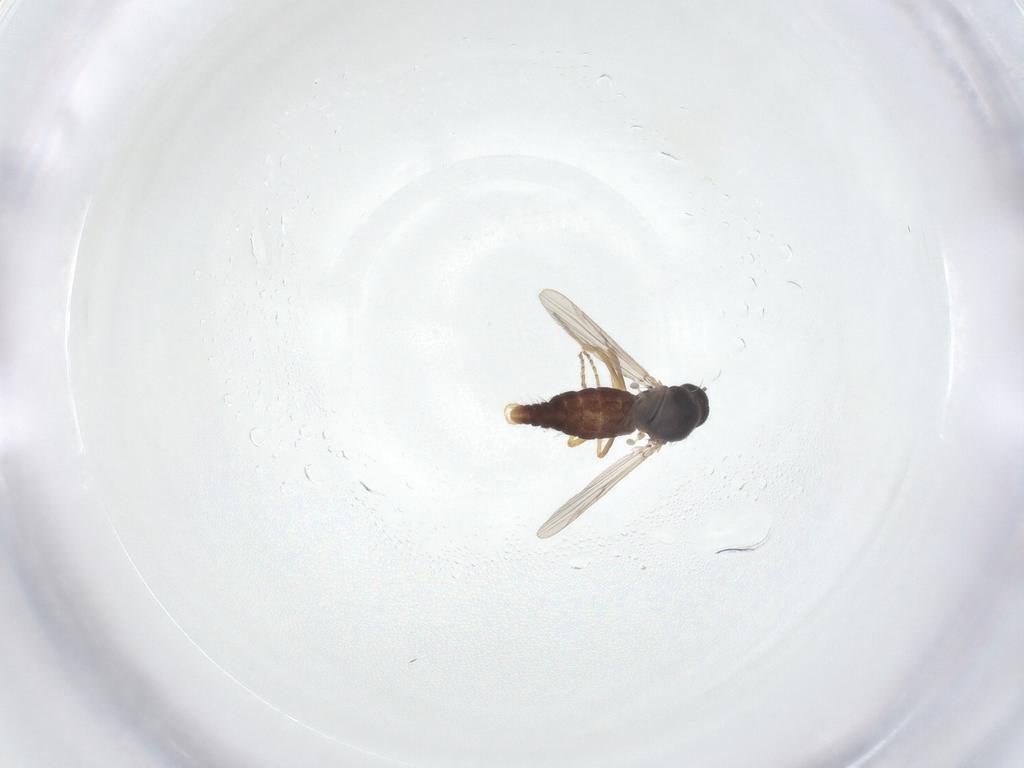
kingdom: Animalia
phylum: Arthropoda
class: Insecta
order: Diptera
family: Ceratopogonidae
